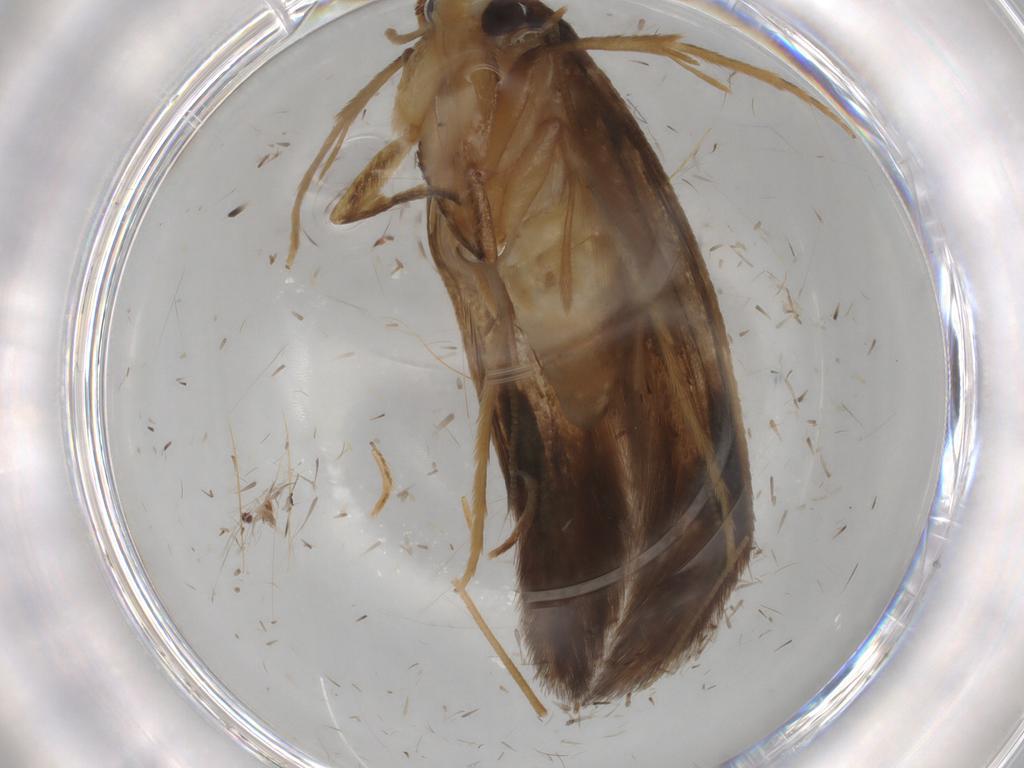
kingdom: Animalia
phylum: Arthropoda
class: Insecta
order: Lepidoptera
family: Tineidae
